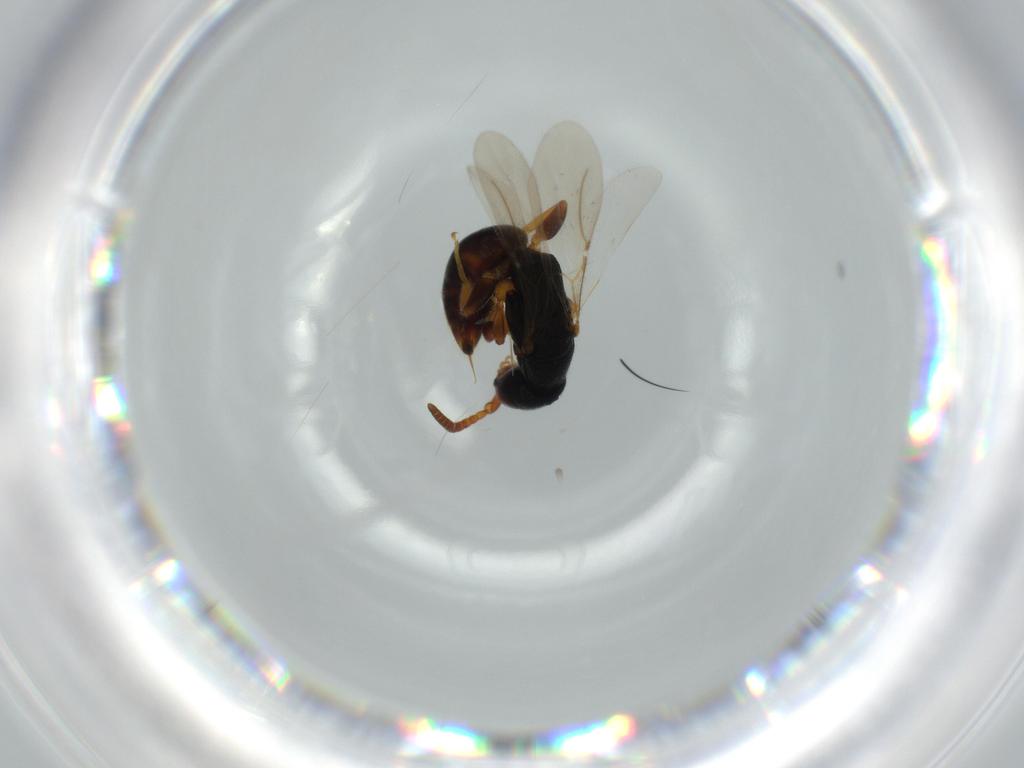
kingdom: Animalia
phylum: Arthropoda
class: Insecta
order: Hymenoptera
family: Bethylidae
